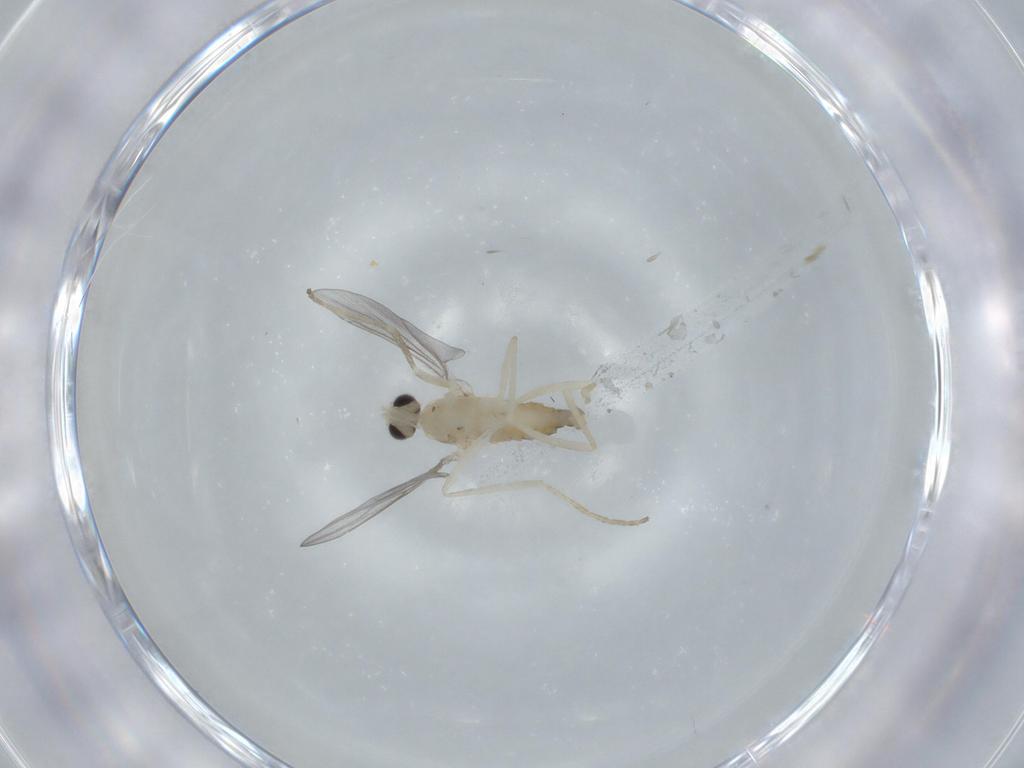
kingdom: Animalia
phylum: Arthropoda
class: Insecta
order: Diptera
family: Cecidomyiidae
